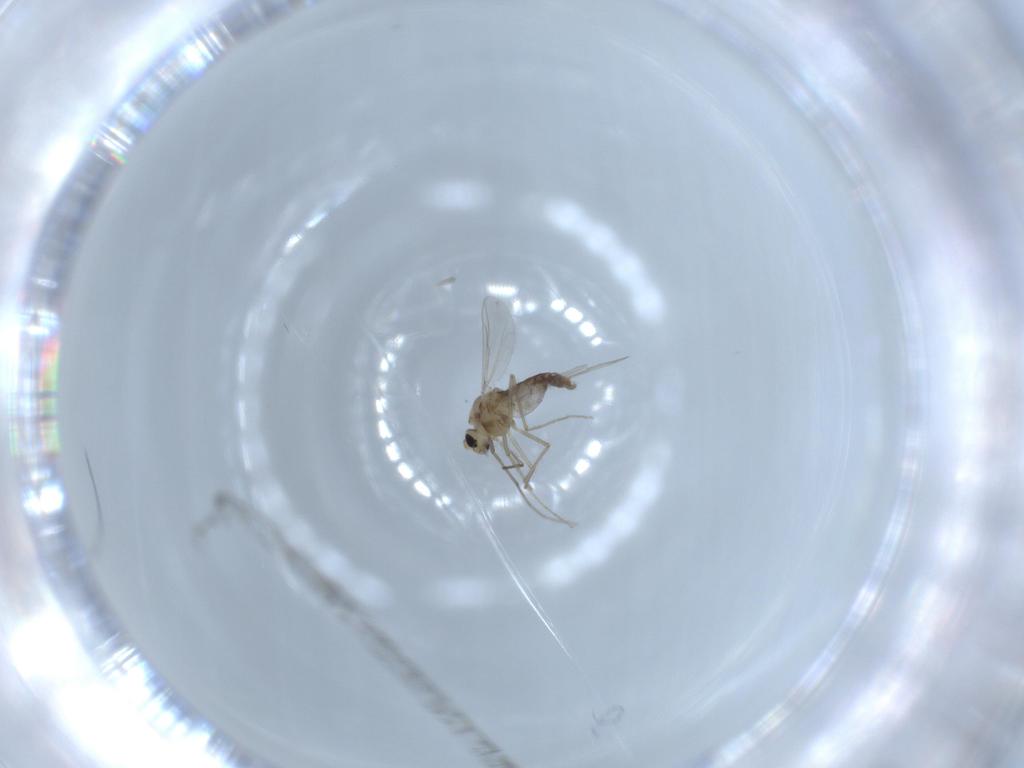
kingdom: Animalia
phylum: Arthropoda
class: Insecta
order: Diptera
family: Chironomidae
